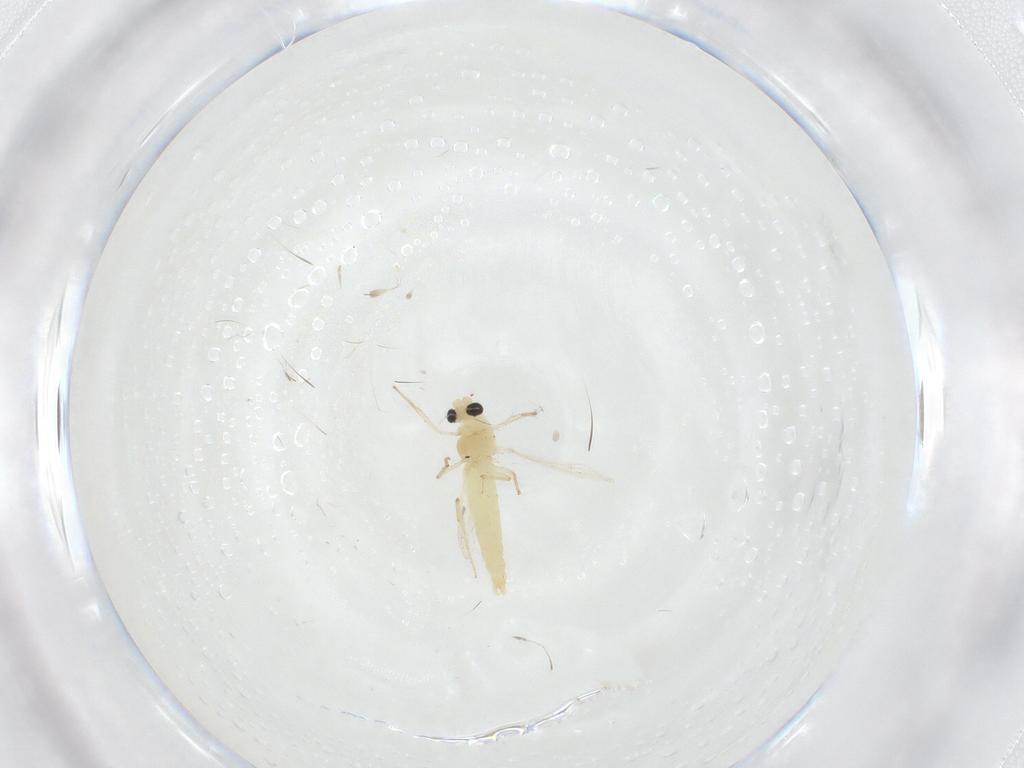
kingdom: Animalia
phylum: Arthropoda
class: Insecta
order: Diptera
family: Chironomidae
